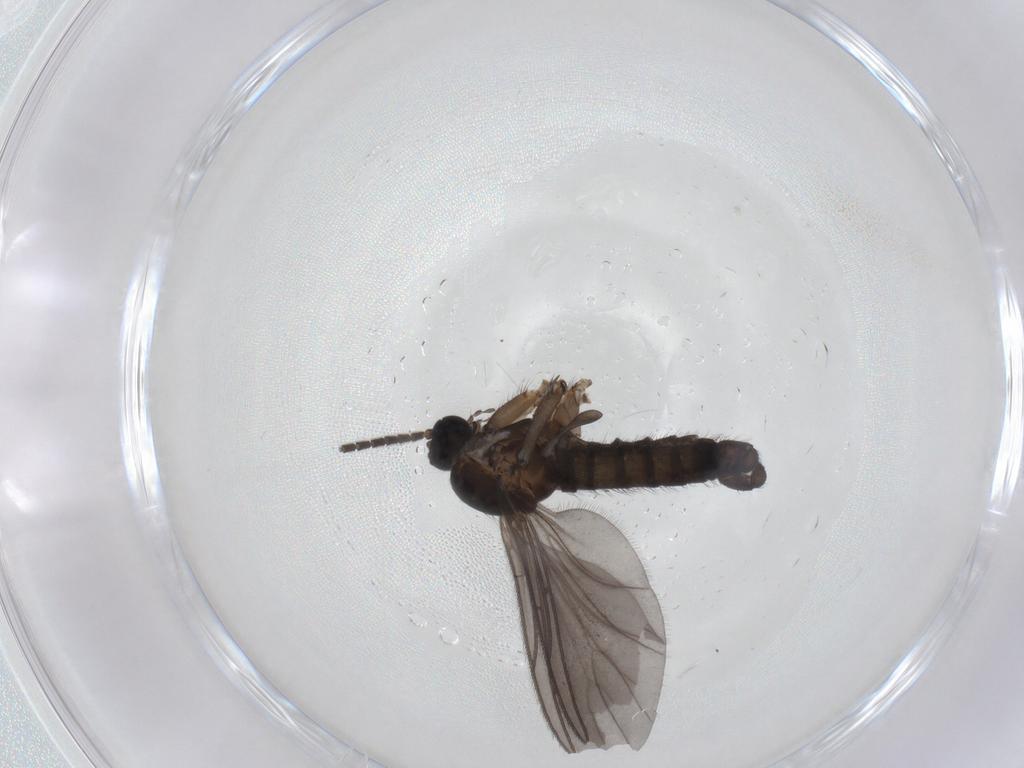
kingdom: Animalia
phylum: Arthropoda
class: Insecta
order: Diptera
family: Sciaridae
